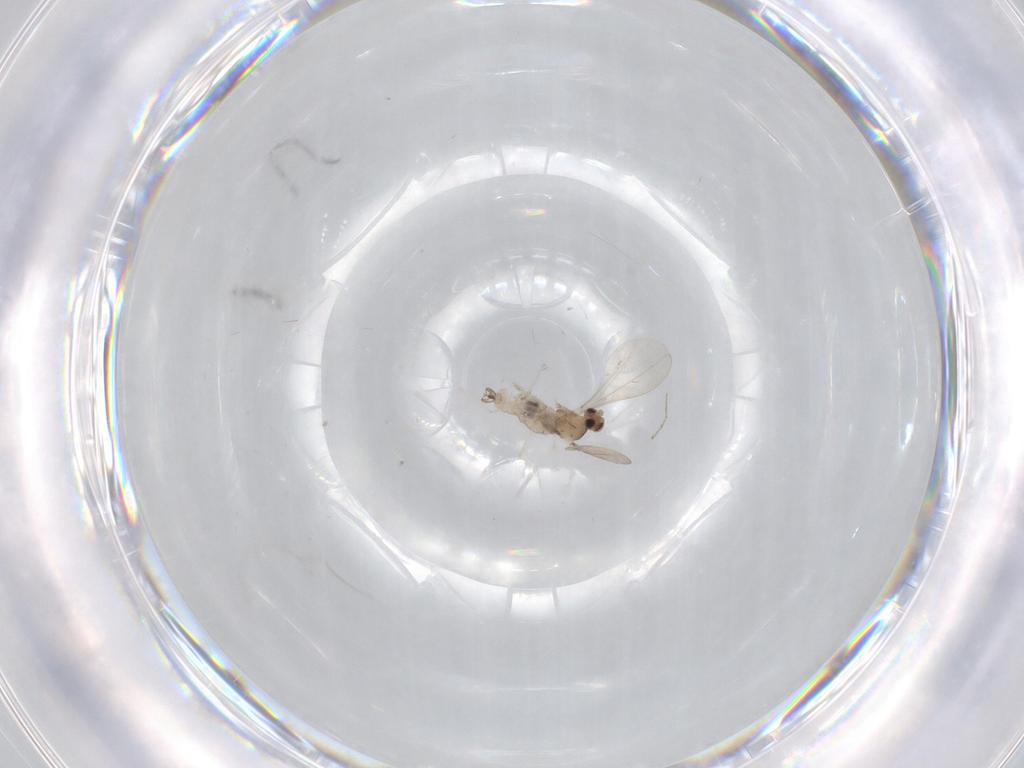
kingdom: Animalia
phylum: Arthropoda
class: Insecta
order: Diptera
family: Cecidomyiidae
